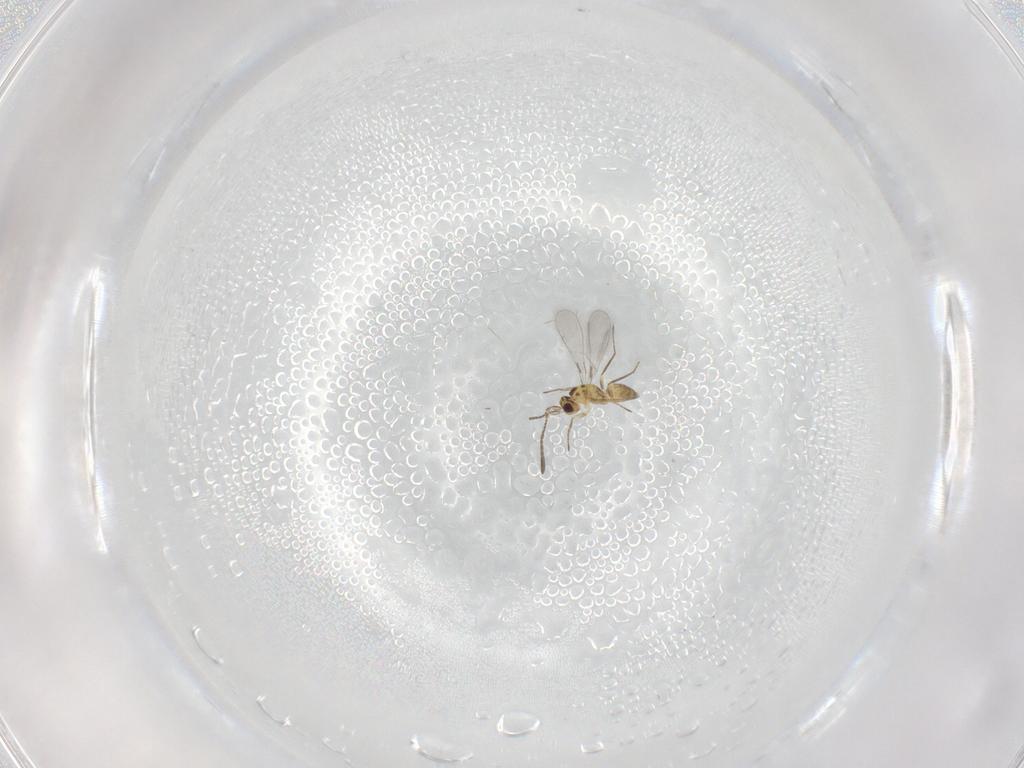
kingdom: Animalia
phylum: Arthropoda
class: Insecta
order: Hymenoptera
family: Mymaridae
